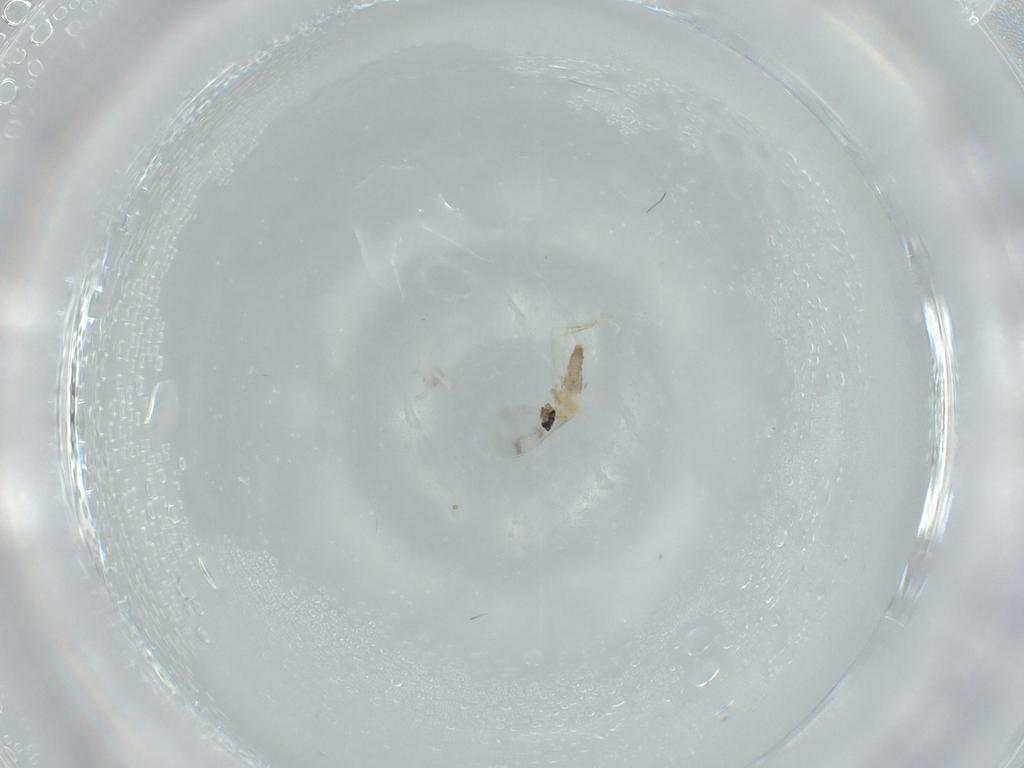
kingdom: Animalia
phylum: Arthropoda
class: Insecta
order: Diptera
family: Cecidomyiidae
